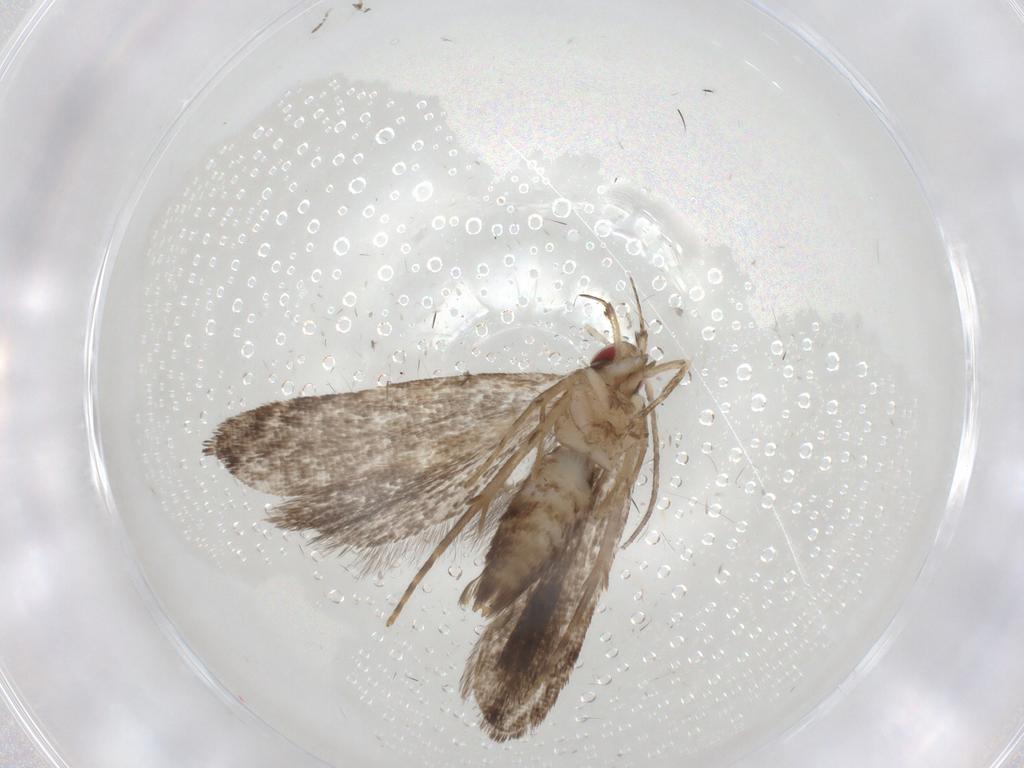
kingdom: Animalia
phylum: Arthropoda
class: Insecta
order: Lepidoptera
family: Gelechiidae
